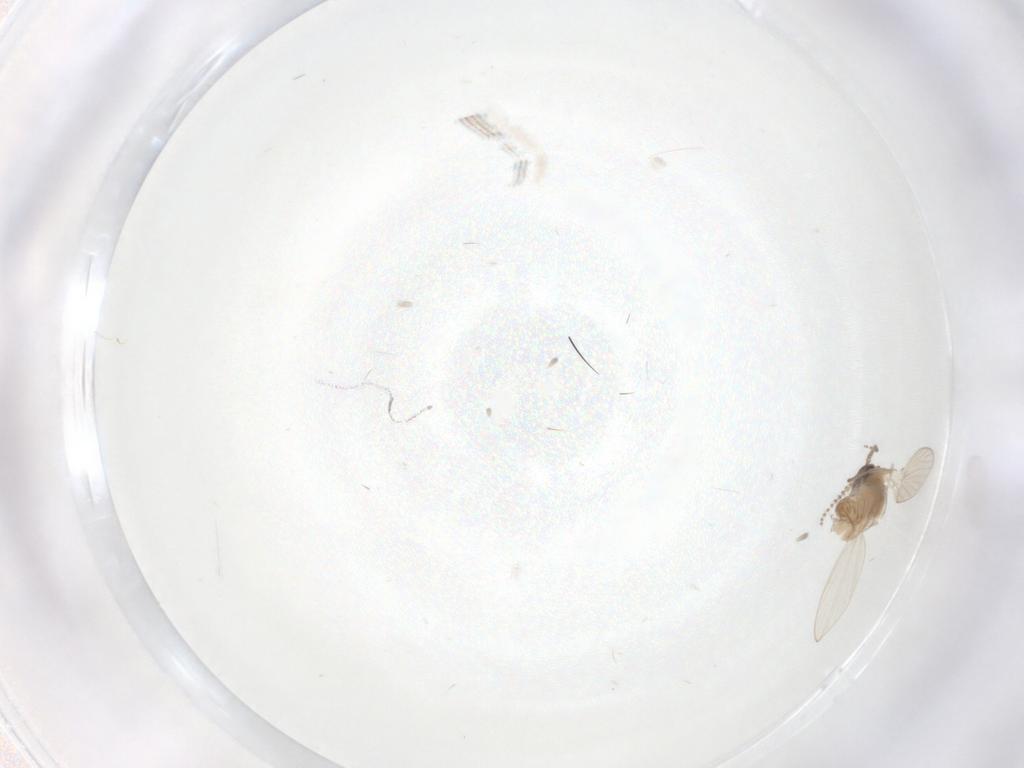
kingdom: Animalia
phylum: Arthropoda
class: Insecta
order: Diptera
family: Psychodidae
